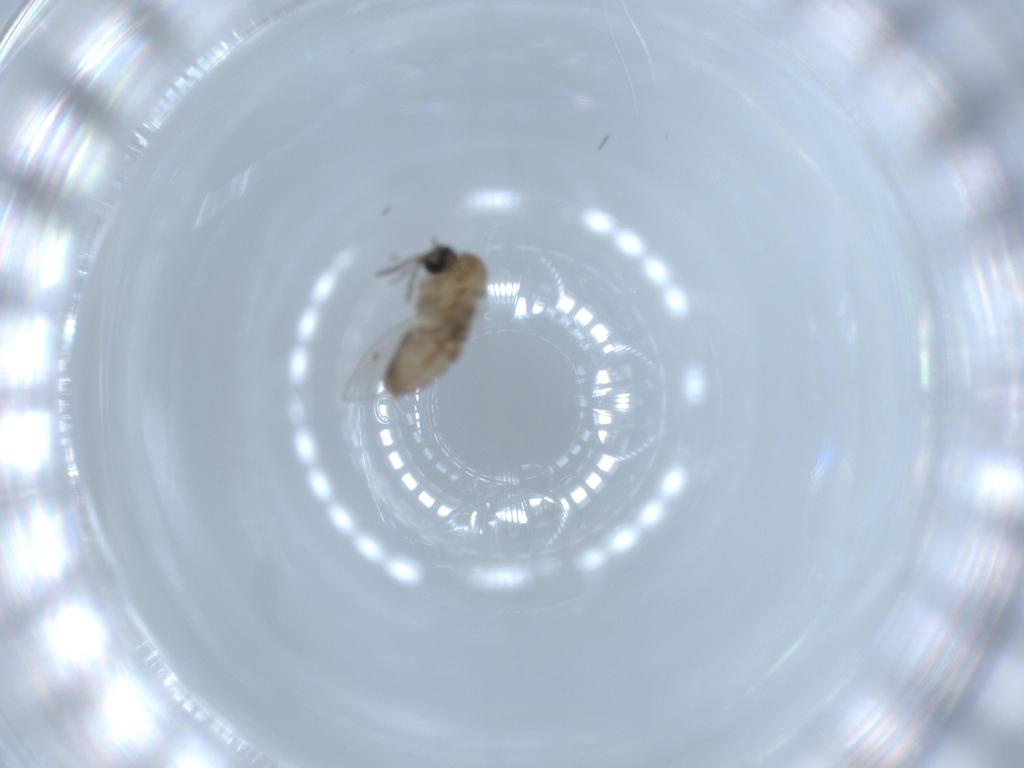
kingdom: Animalia
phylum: Arthropoda
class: Insecta
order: Diptera
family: Psychodidae
